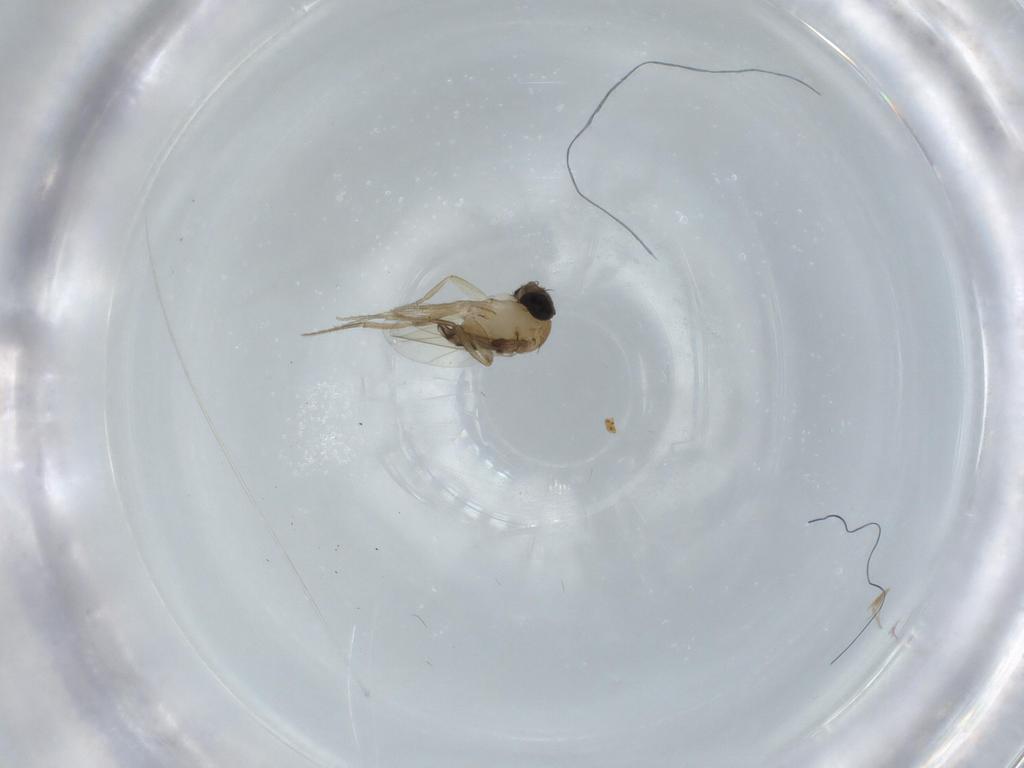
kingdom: Animalia
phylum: Arthropoda
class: Insecta
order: Diptera
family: Phoridae
